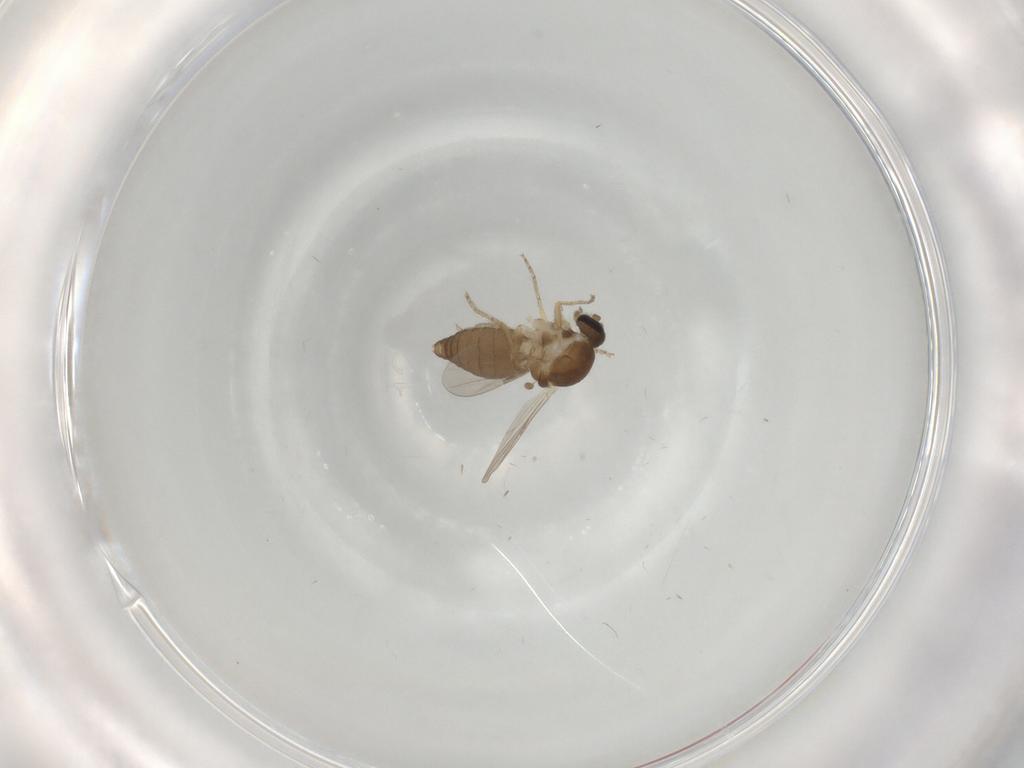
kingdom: Animalia
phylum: Arthropoda
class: Insecta
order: Diptera
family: Ceratopogonidae
